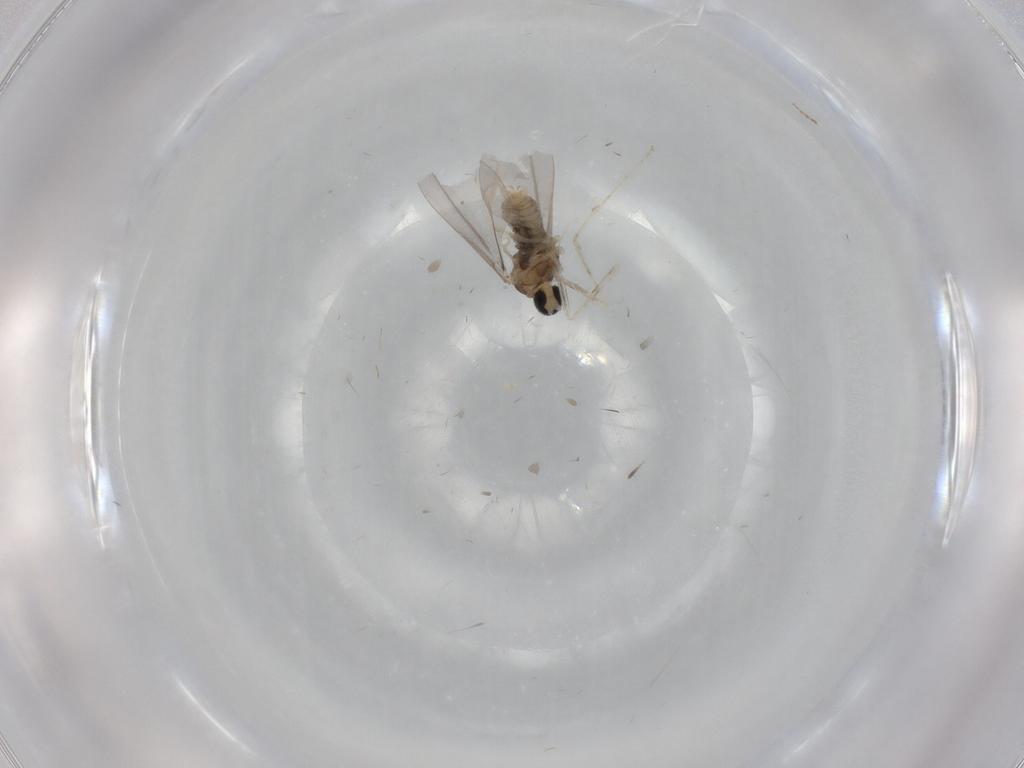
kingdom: Animalia
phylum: Arthropoda
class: Insecta
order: Diptera
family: Cecidomyiidae
